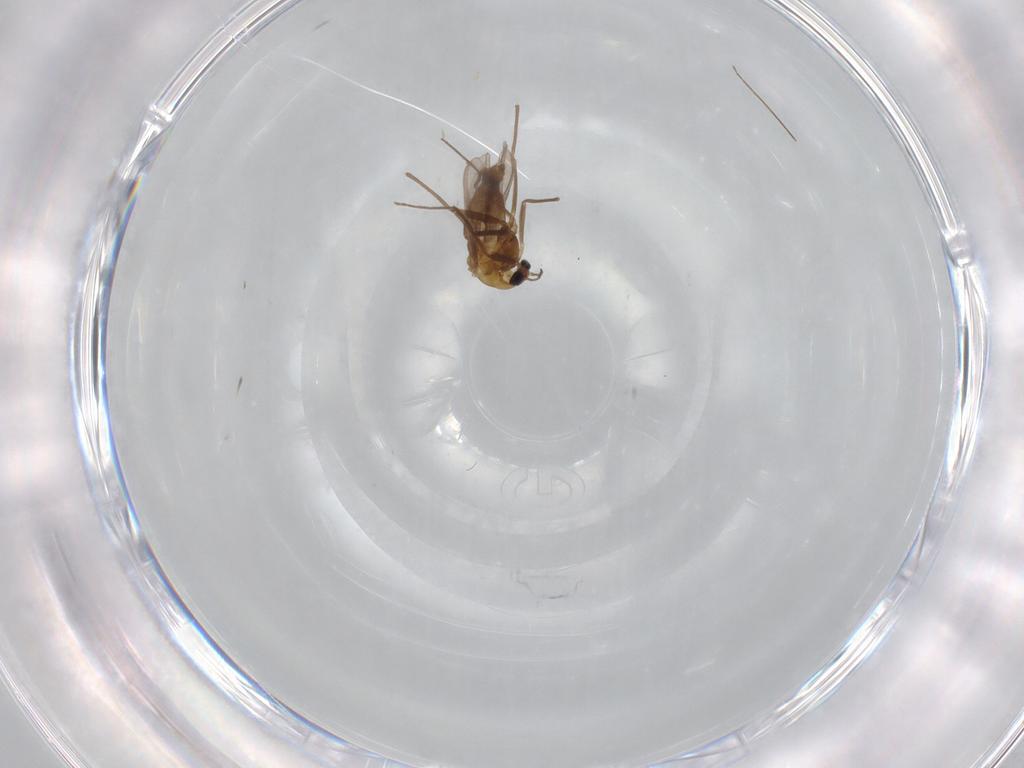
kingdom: Animalia
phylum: Arthropoda
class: Insecta
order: Diptera
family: Chironomidae
